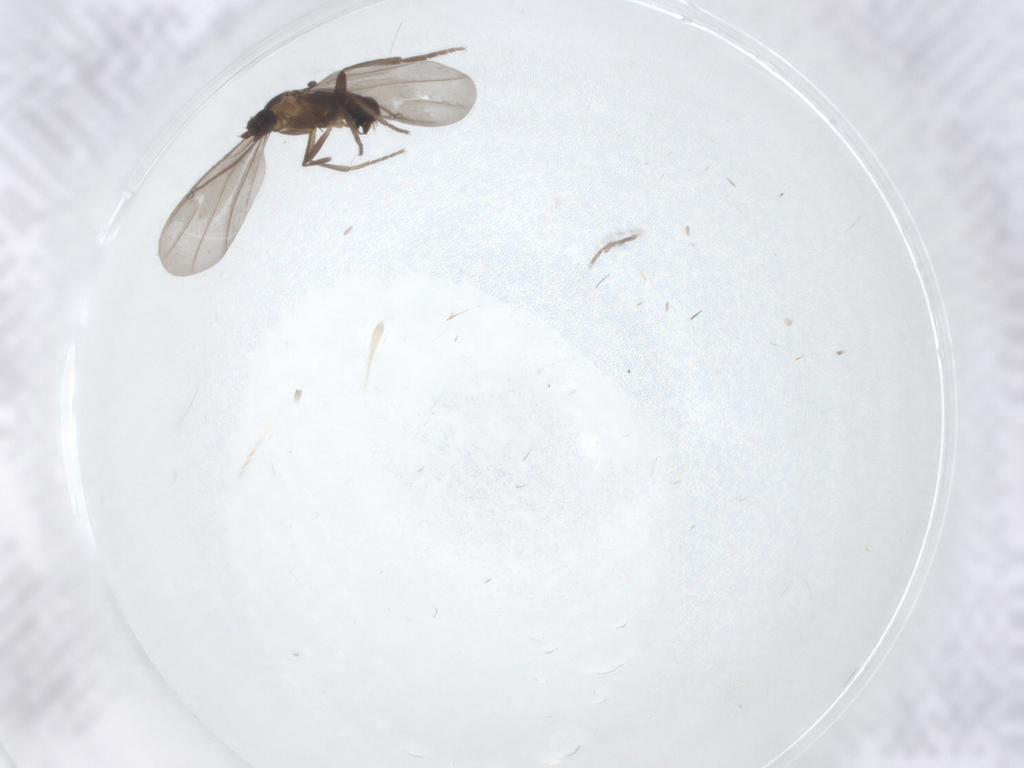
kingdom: Animalia
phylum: Arthropoda
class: Insecta
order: Diptera
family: Phoridae
